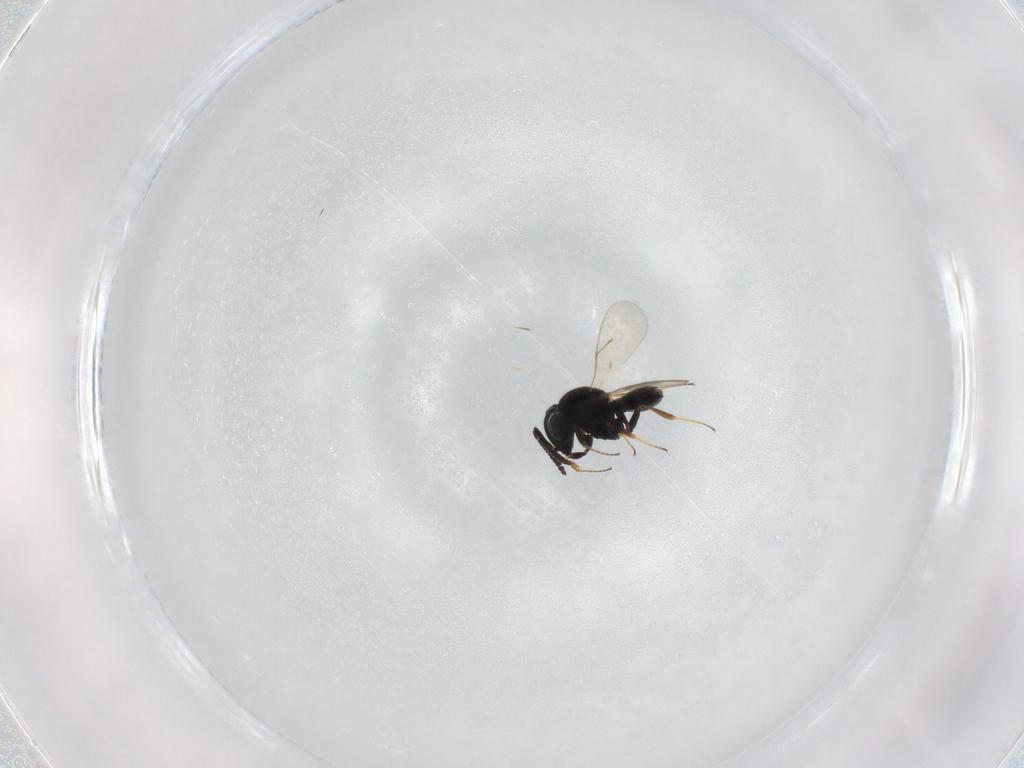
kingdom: Animalia
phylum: Arthropoda
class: Insecta
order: Hymenoptera
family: Scelionidae
